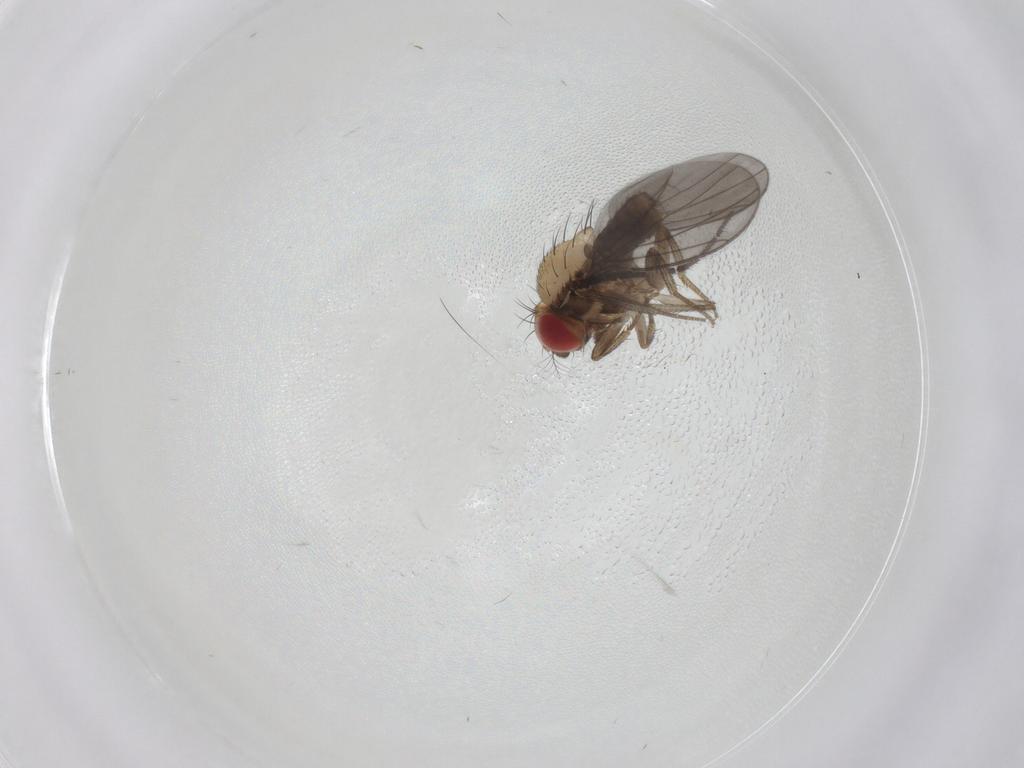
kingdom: Animalia
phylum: Arthropoda
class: Insecta
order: Diptera
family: Drosophilidae
